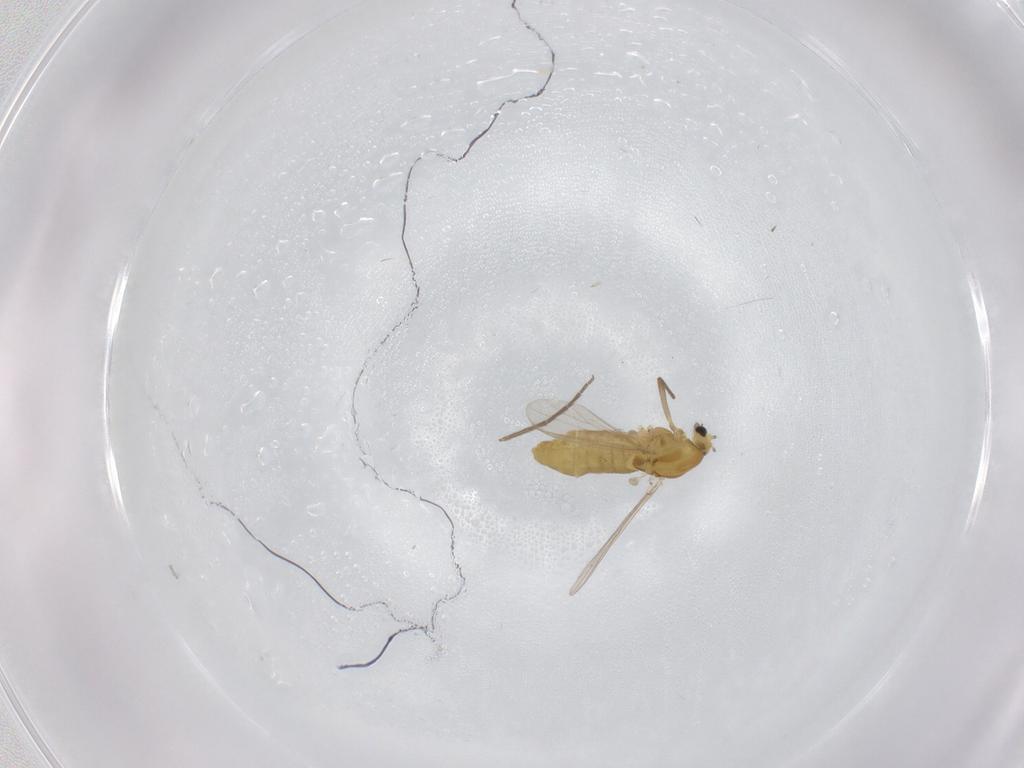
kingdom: Animalia
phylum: Arthropoda
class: Insecta
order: Diptera
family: Chironomidae
